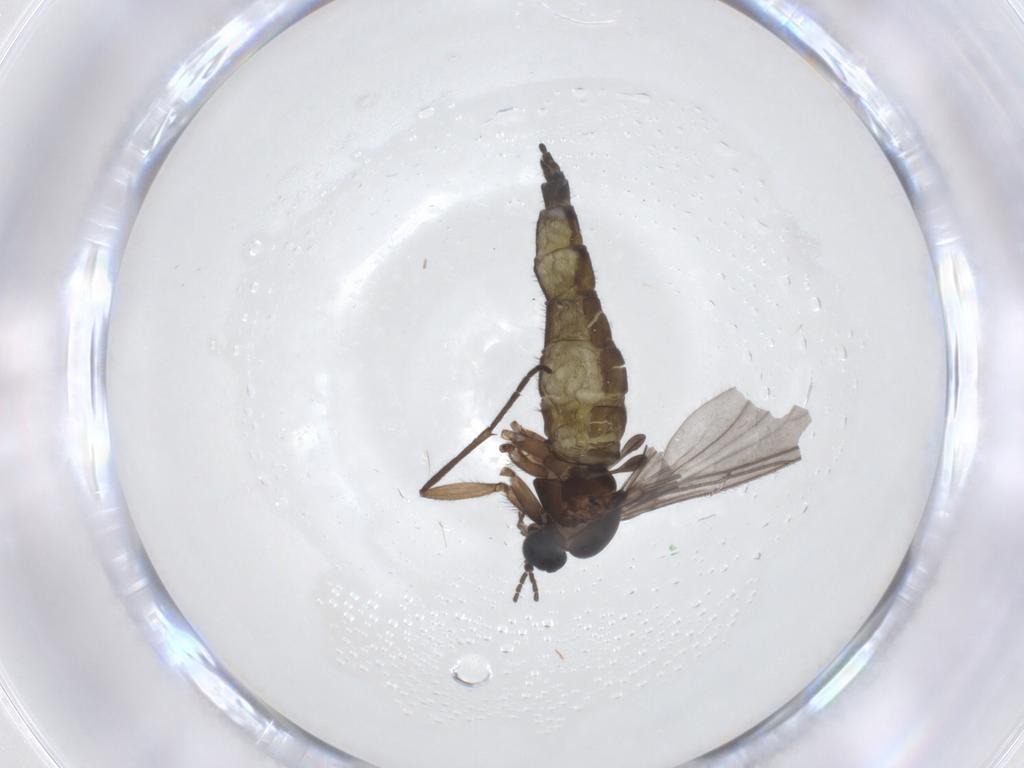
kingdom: Animalia
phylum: Arthropoda
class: Insecta
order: Diptera
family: Sciaridae
